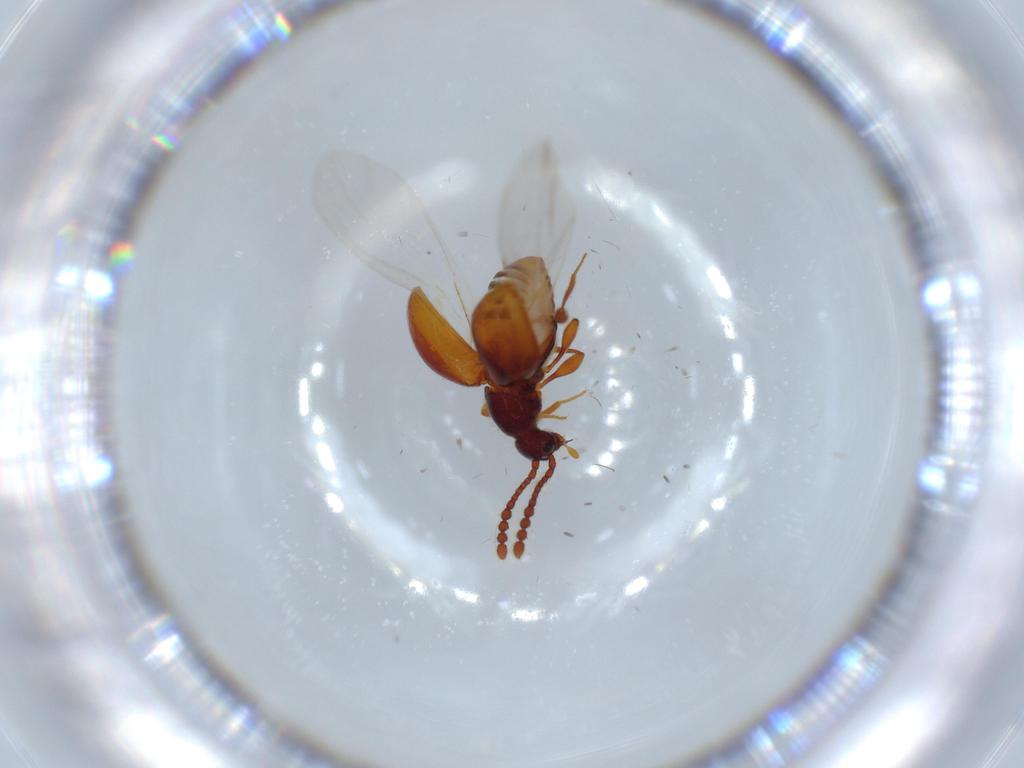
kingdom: Animalia
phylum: Arthropoda
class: Insecta
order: Coleoptera
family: Staphylinidae
